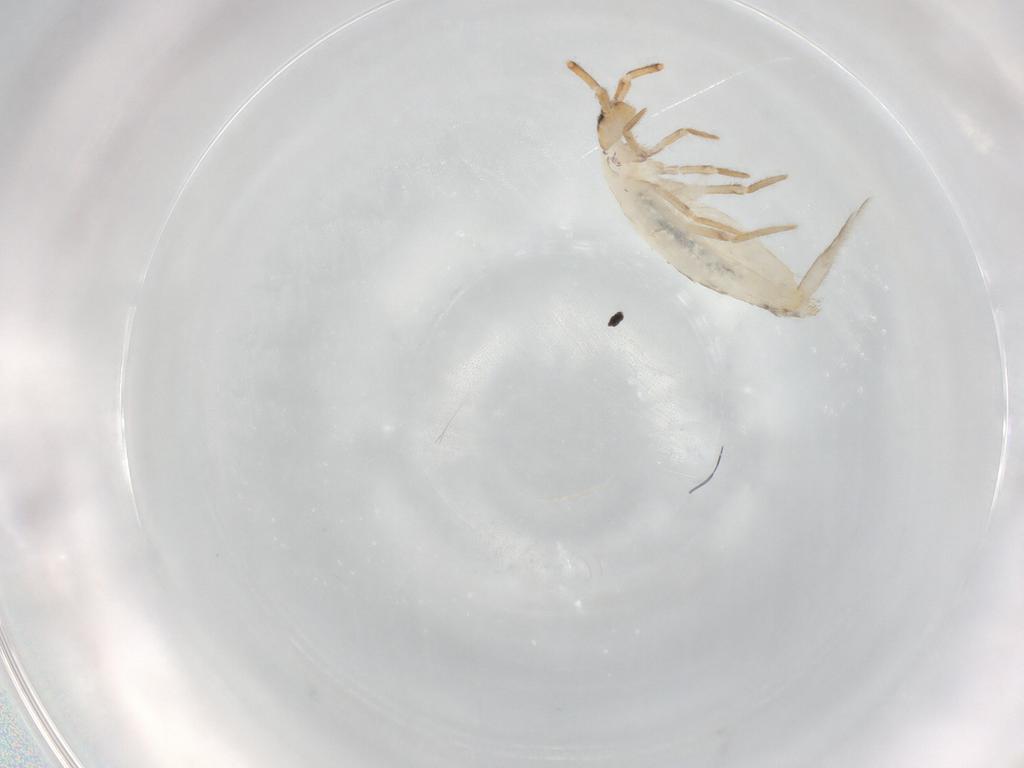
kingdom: Animalia
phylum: Arthropoda
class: Collembola
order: Entomobryomorpha
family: Entomobryidae
